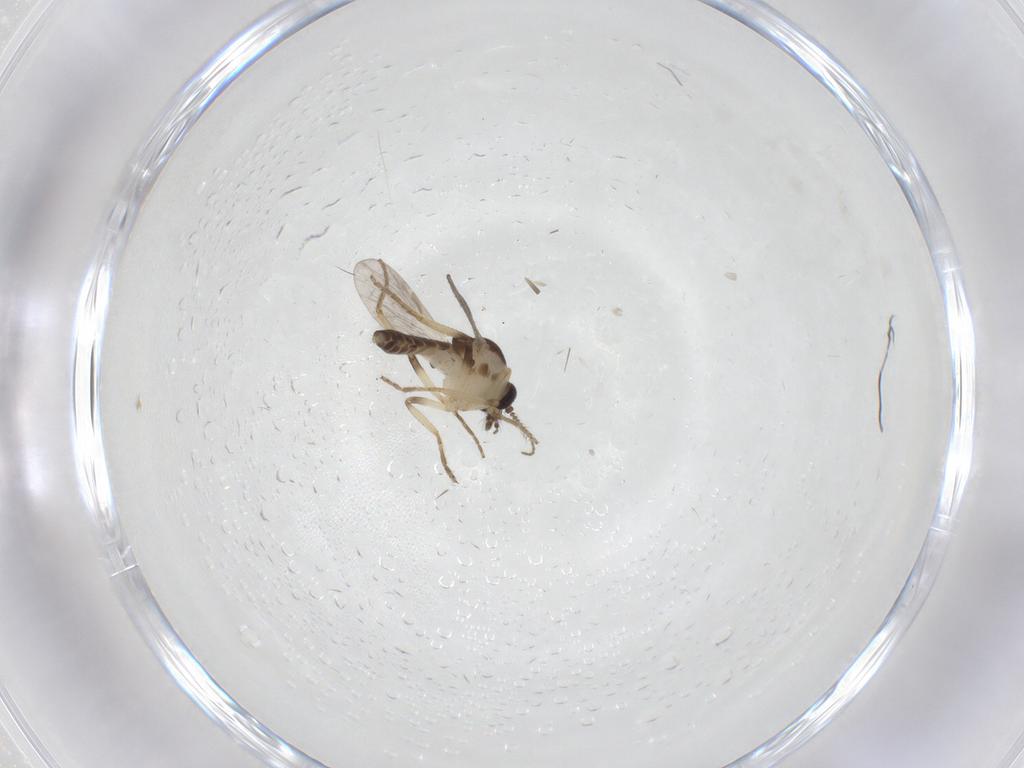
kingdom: Animalia
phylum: Arthropoda
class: Insecta
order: Diptera
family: Ceratopogonidae
